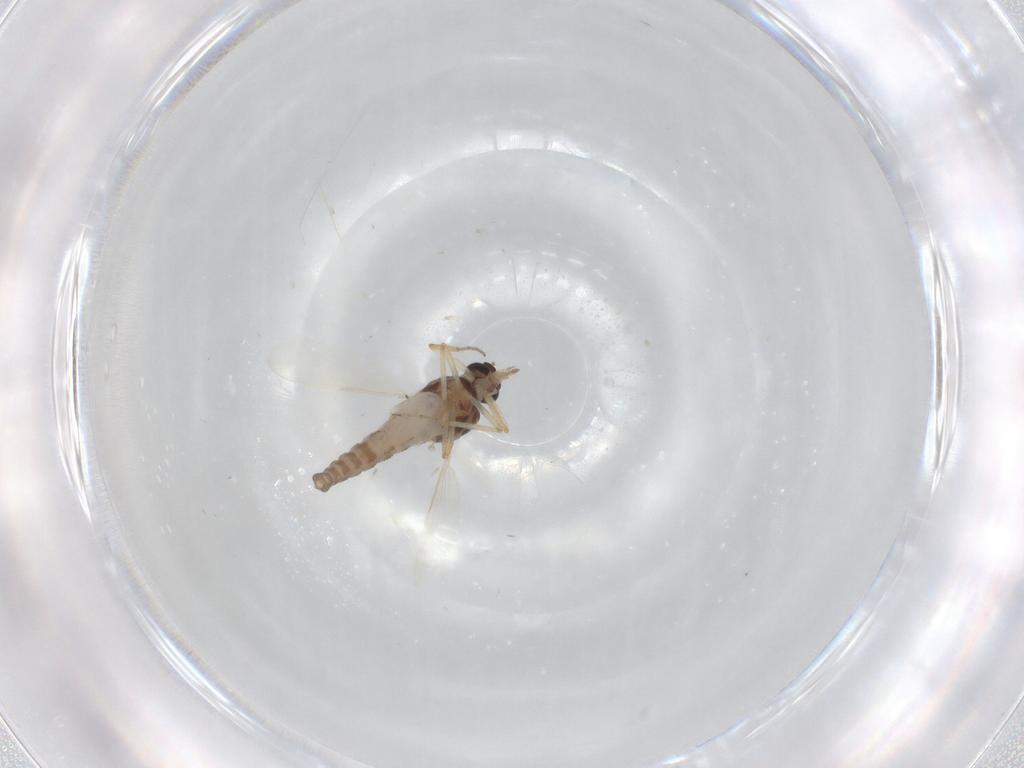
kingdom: Animalia
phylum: Arthropoda
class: Insecta
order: Diptera
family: Ceratopogonidae
